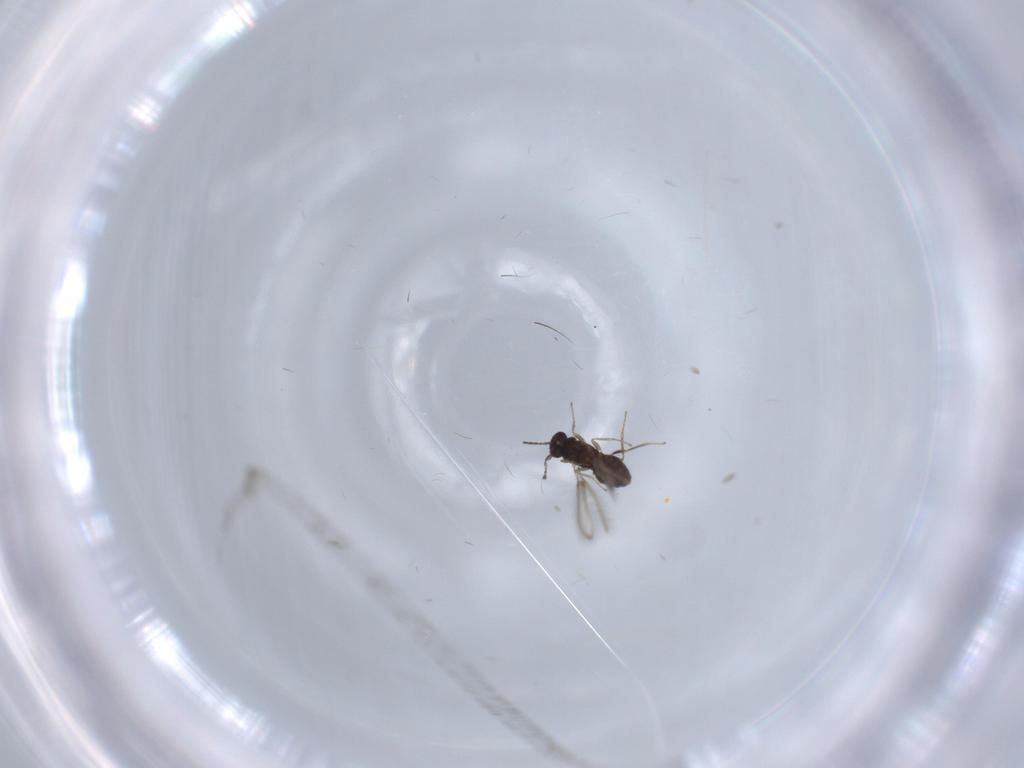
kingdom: Animalia
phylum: Arthropoda
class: Insecta
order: Hymenoptera
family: Mymaridae
